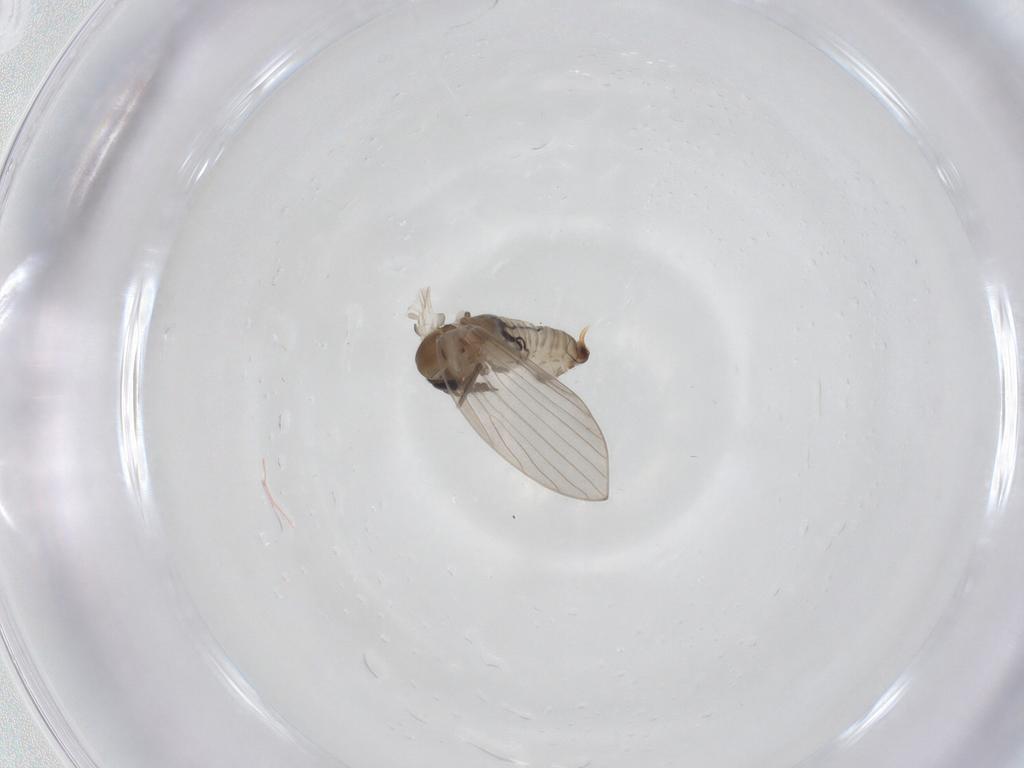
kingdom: Animalia
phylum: Arthropoda
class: Insecta
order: Diptera
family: Psychodidae
